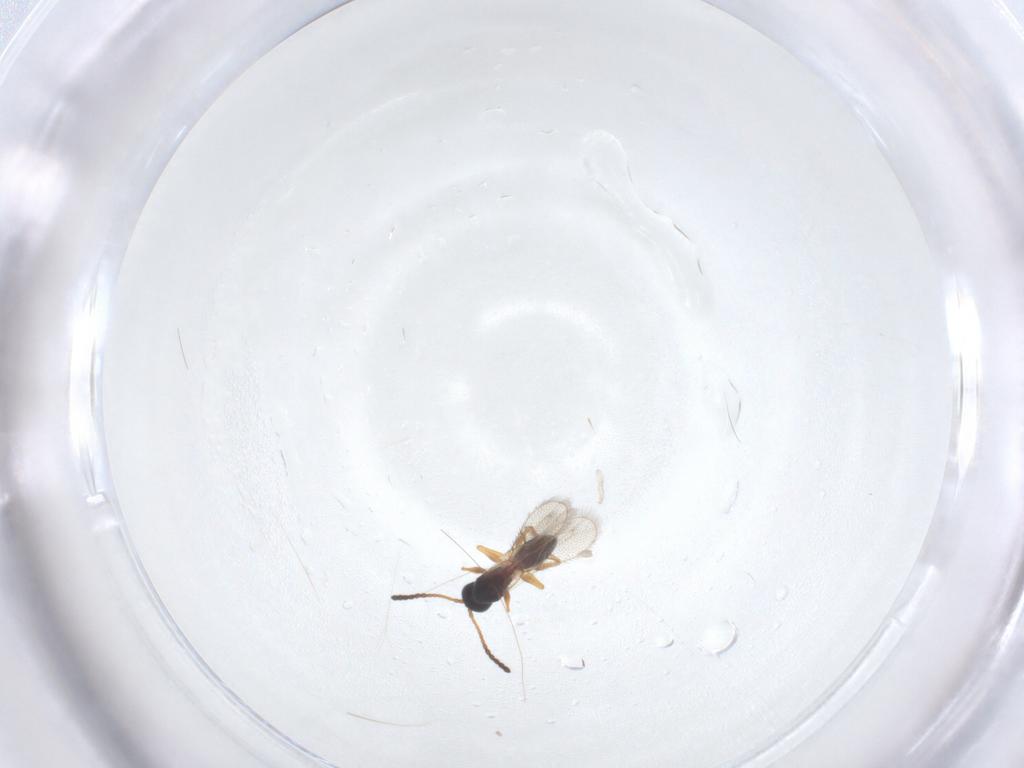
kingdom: Animalia
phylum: Arthropoda
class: Insecta
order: Hymenoptera
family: Figitidae
